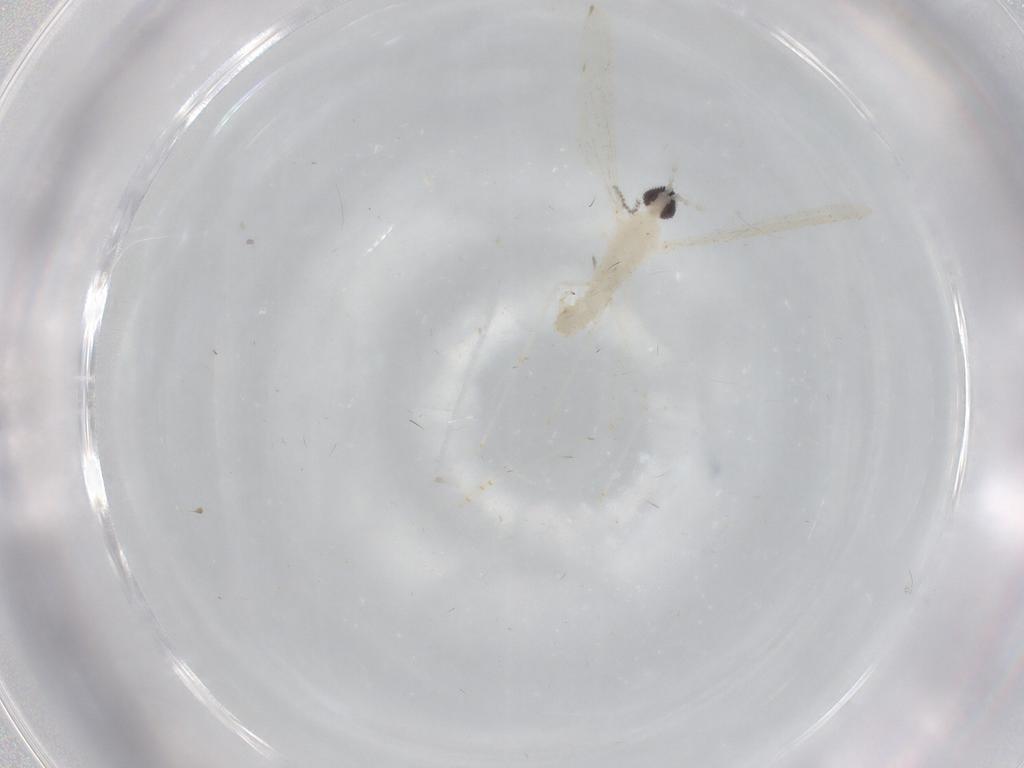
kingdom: Animalia
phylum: Arthropoda
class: Insecta
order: Diptera
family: Cecidomyiidae
